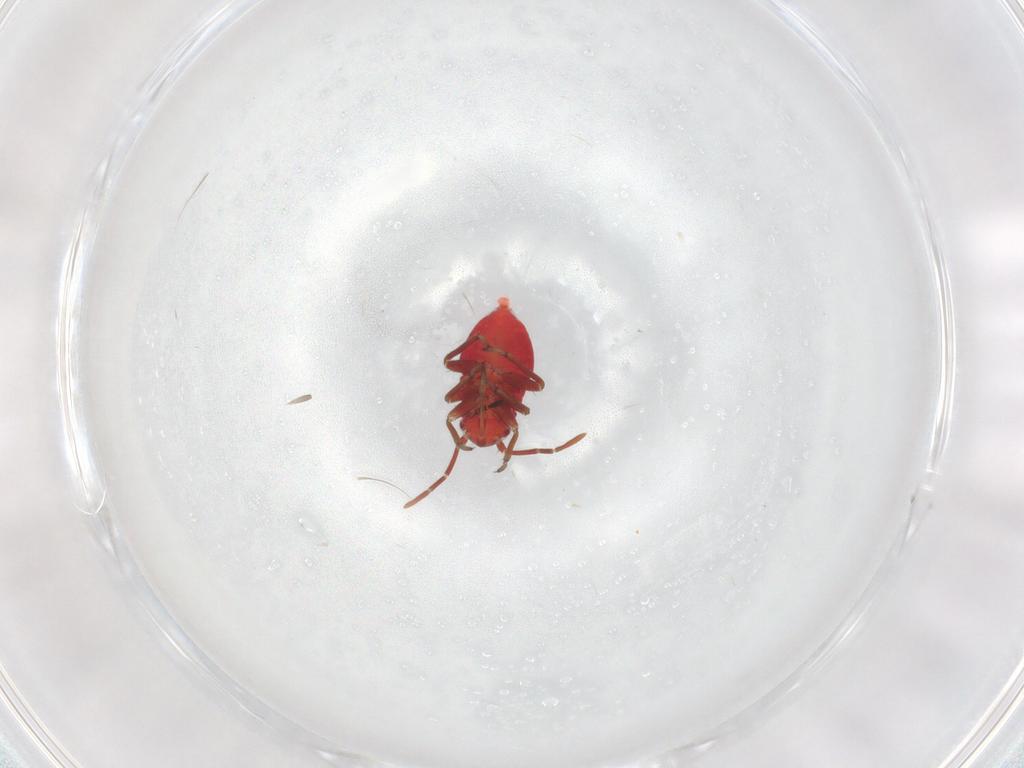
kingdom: Animalia
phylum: Arthropoda
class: Insecta
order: Hemiptera
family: Miridae
